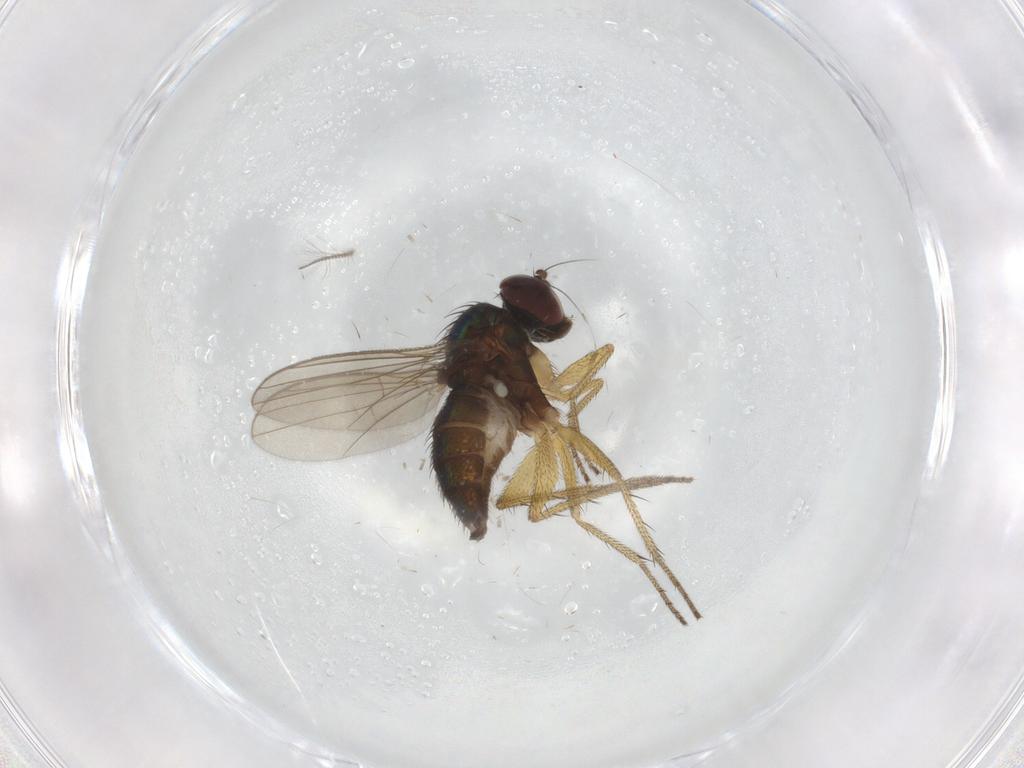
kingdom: Animalia
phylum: Arthropoda
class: Insecta
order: Diptera
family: Dolichopodidae
